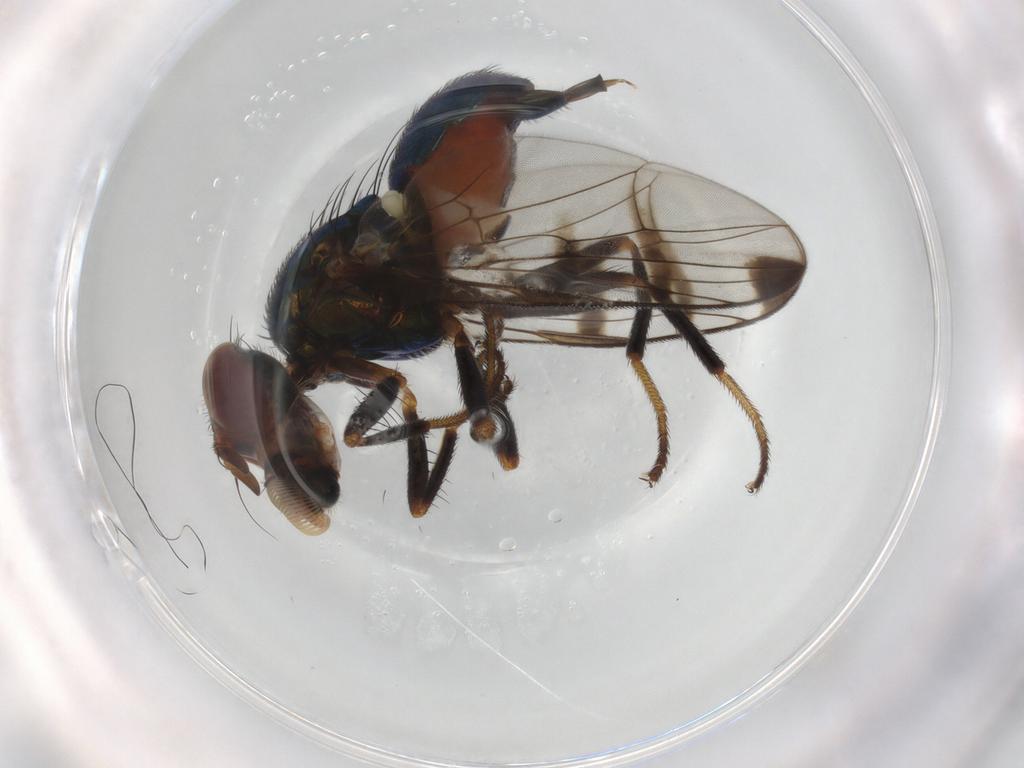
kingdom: Animalia
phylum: Arthropoda
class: Insecta
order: Diptera
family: Platystomatidae
